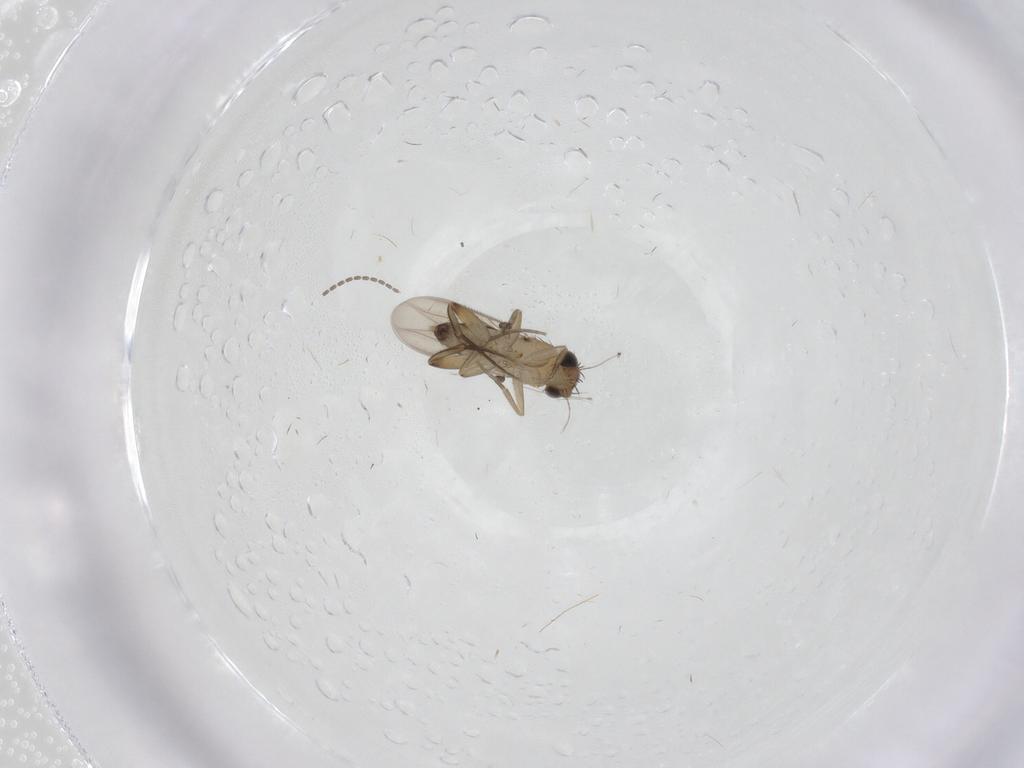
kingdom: Animalia
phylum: Arthropoda
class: Insecta
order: Diptera
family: Cecidomyiidae
